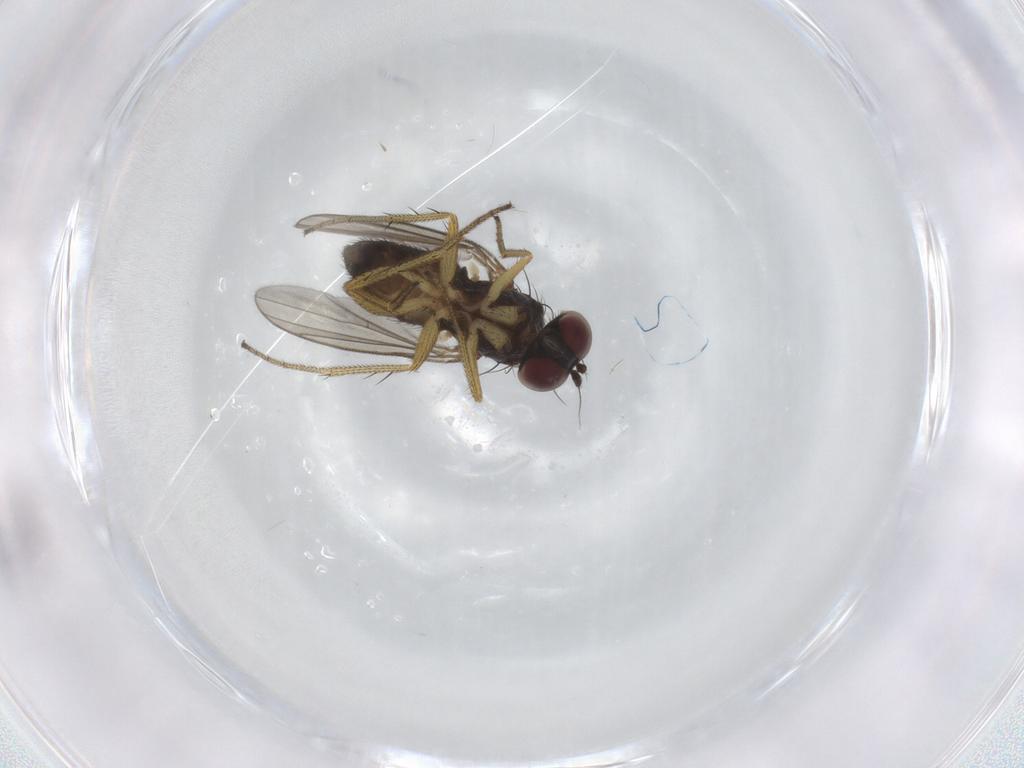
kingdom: Animalia
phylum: Arthropoda
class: Insecta
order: Diptera
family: Dolichopodidae
